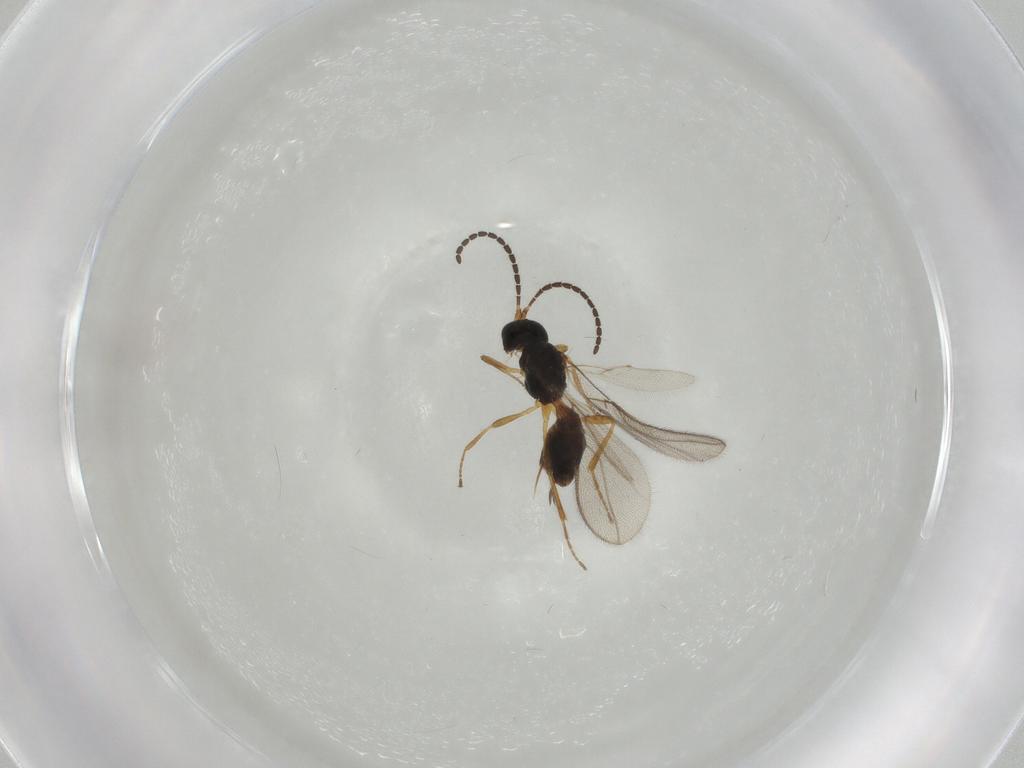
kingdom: Animalia
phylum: Arthropoda
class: Insecta
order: Hymenoptera
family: Braconidae
